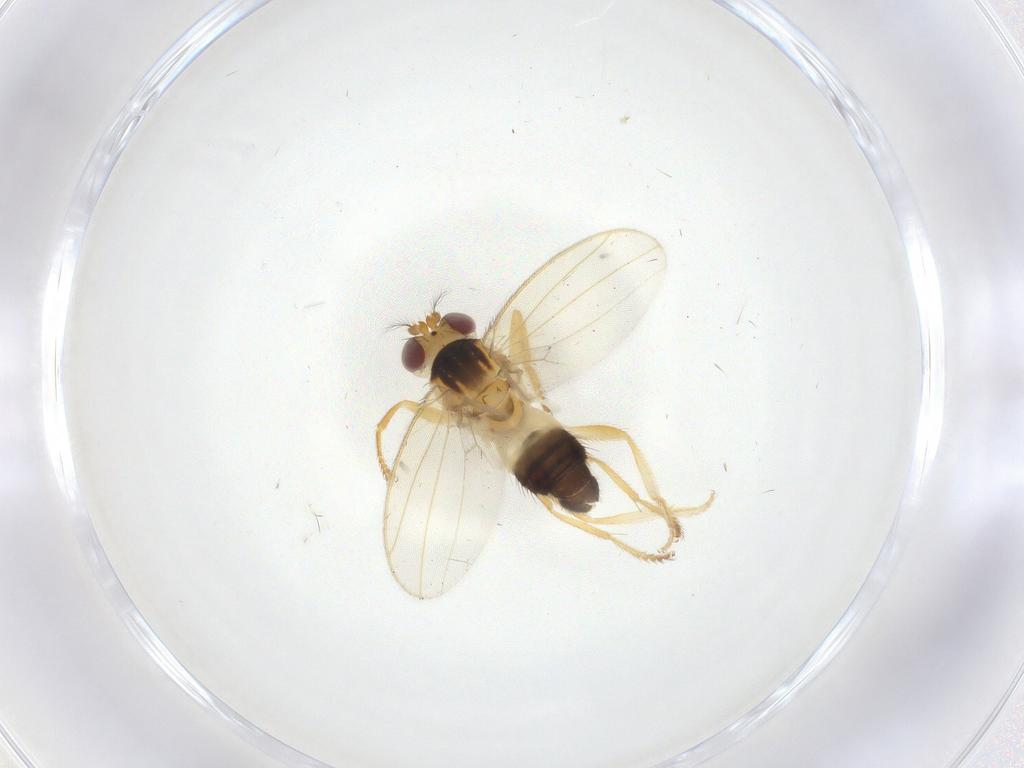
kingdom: Animalia
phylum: Arthropoda
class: Insecta
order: Diptera
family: Periscelididae
